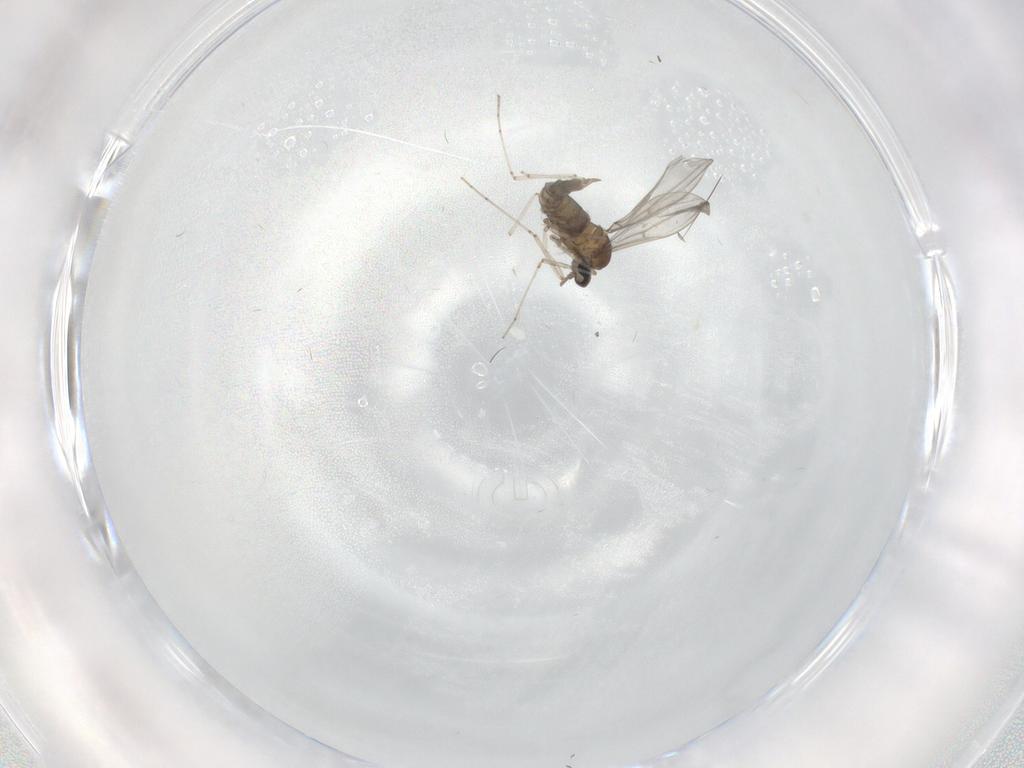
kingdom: Animalia
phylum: Arthropoda
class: Insecta
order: Diptera
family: Cecidomyiidae
